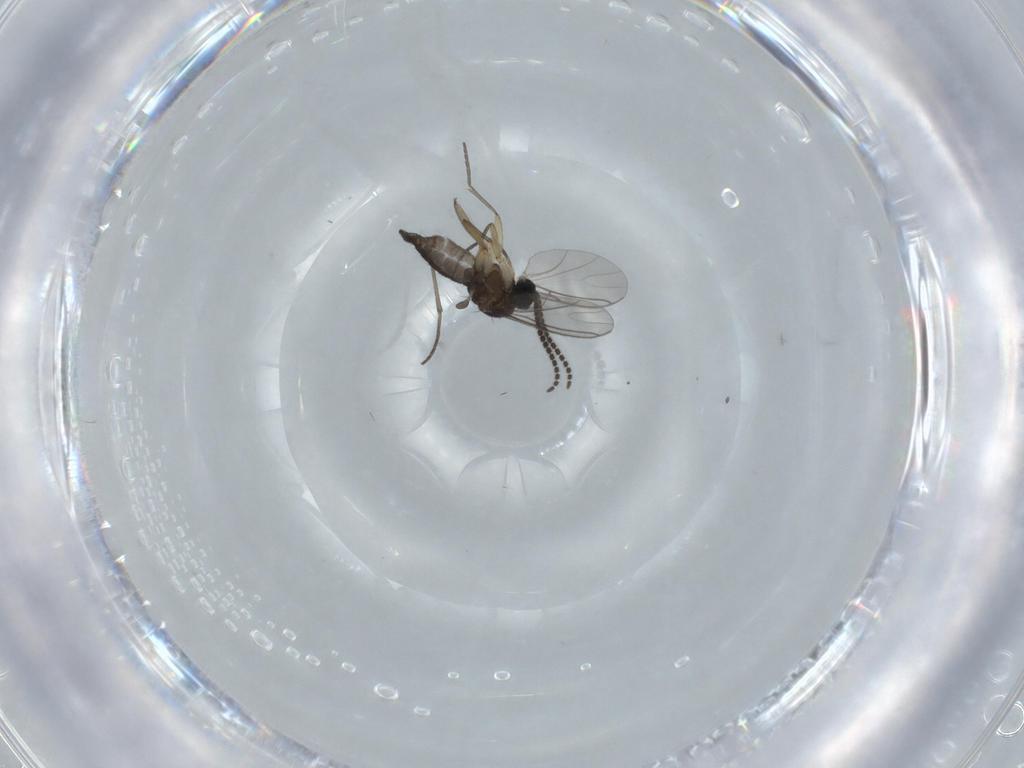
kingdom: Animalia
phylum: Arthropoda
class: Insecta
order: Diptera
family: Sciaridae
